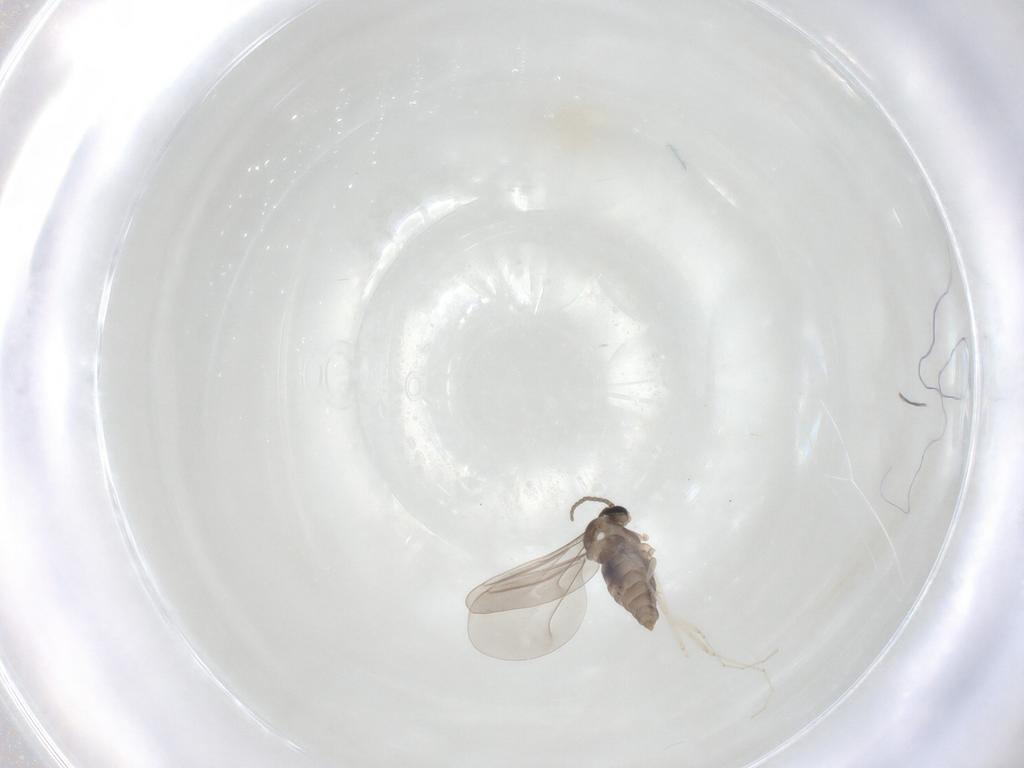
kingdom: Animalia
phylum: Arthropoda
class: Insecta
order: Diptera
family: Cecidomyiidae
